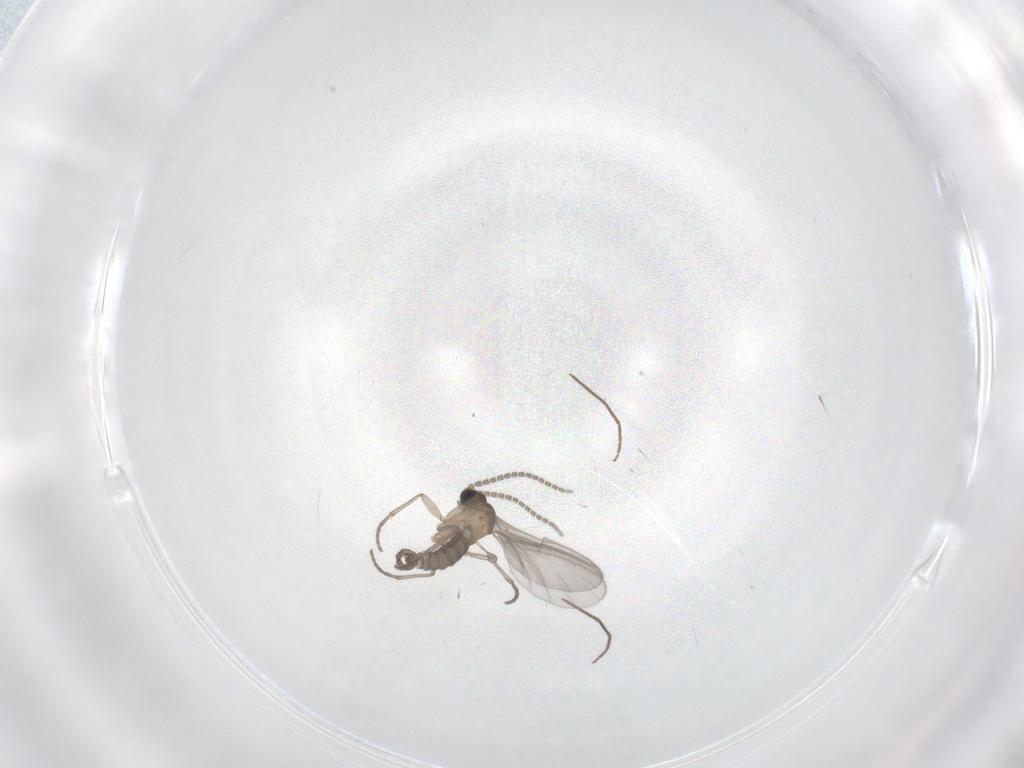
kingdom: Animalia
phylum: Arthropoda
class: Insecta
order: Diptera
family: Sciaridae
